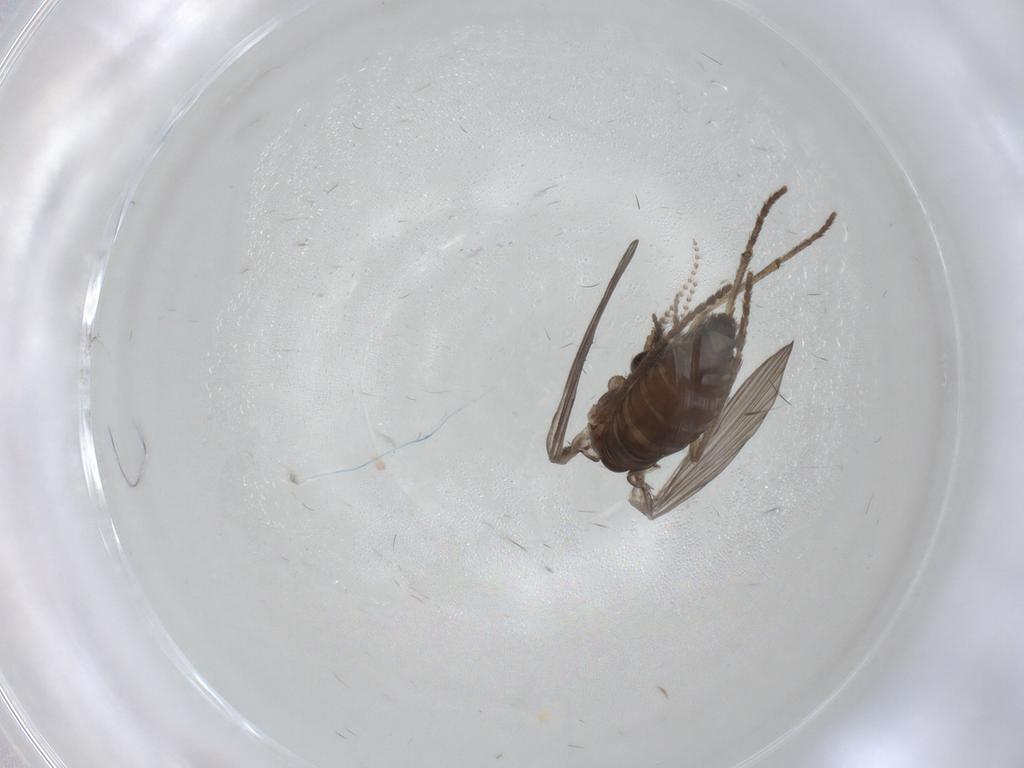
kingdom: Animalia
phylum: Arthropoda
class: Insecta
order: Diptera
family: Psychodidae
